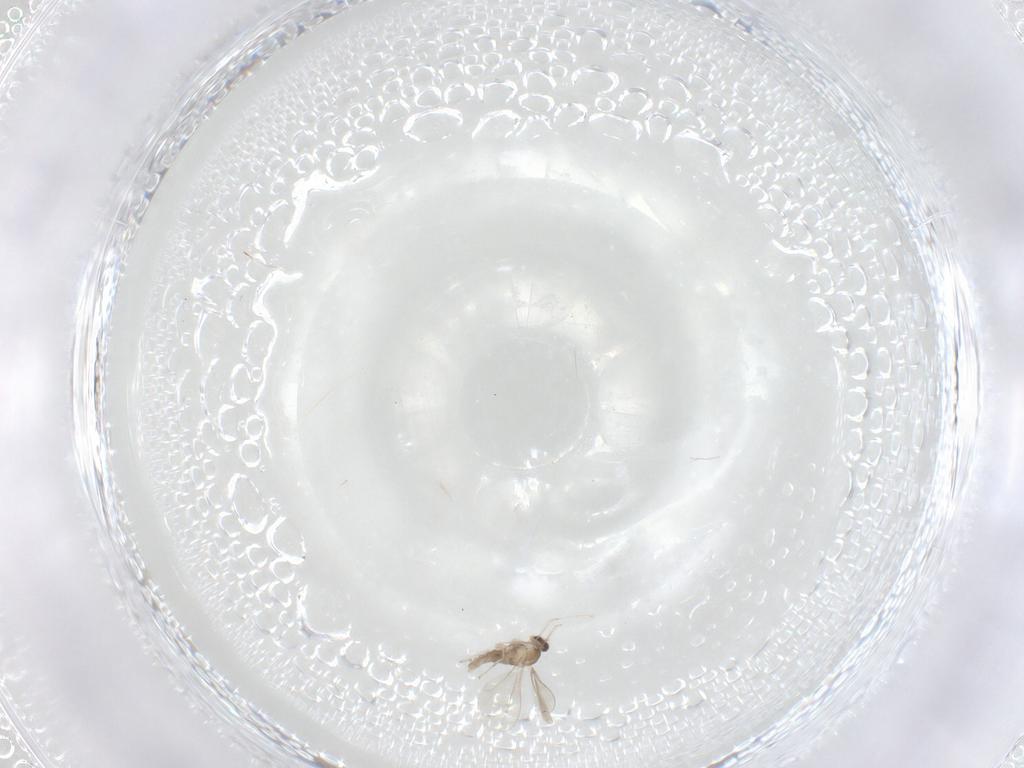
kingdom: Animalia
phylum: Arthropoda
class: Insecta
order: Diptera
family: Cecidomyiidae
